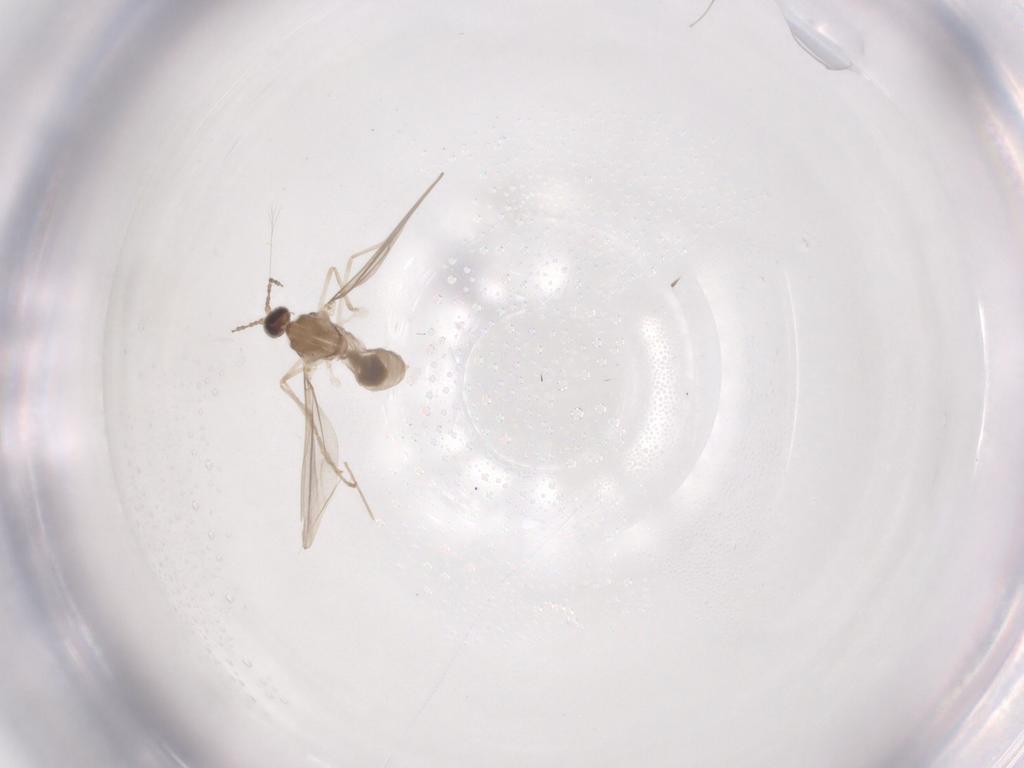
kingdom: Animalia
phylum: Arthropoda
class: Insecta
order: Diptera
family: Cecidomyiidae
